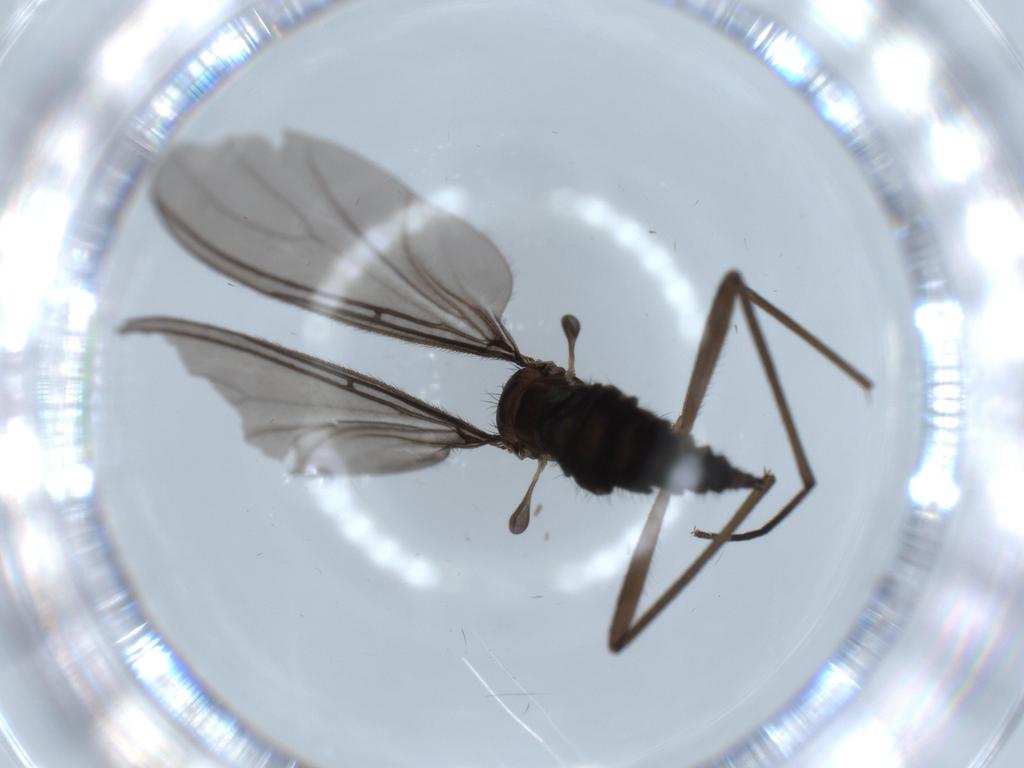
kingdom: Animalia
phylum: Arthropoda
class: Insecta
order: Diptera
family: Sciaridae
